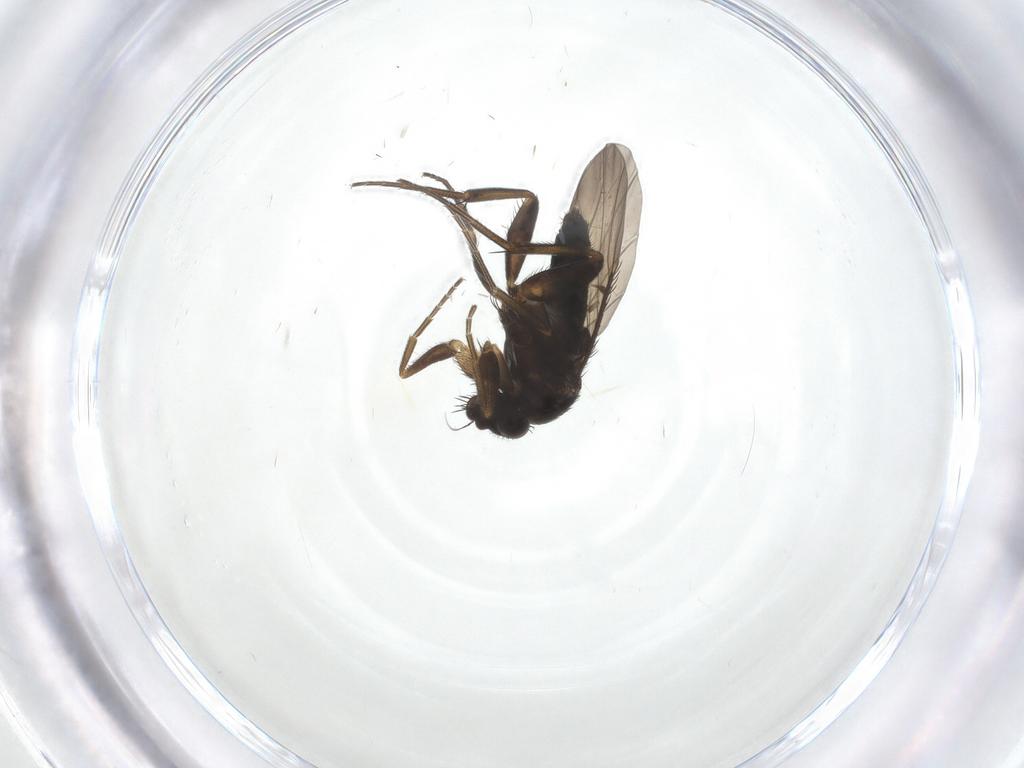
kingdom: Animalia
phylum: Arthropoda
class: Insecta
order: Diptera
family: Phoridae
